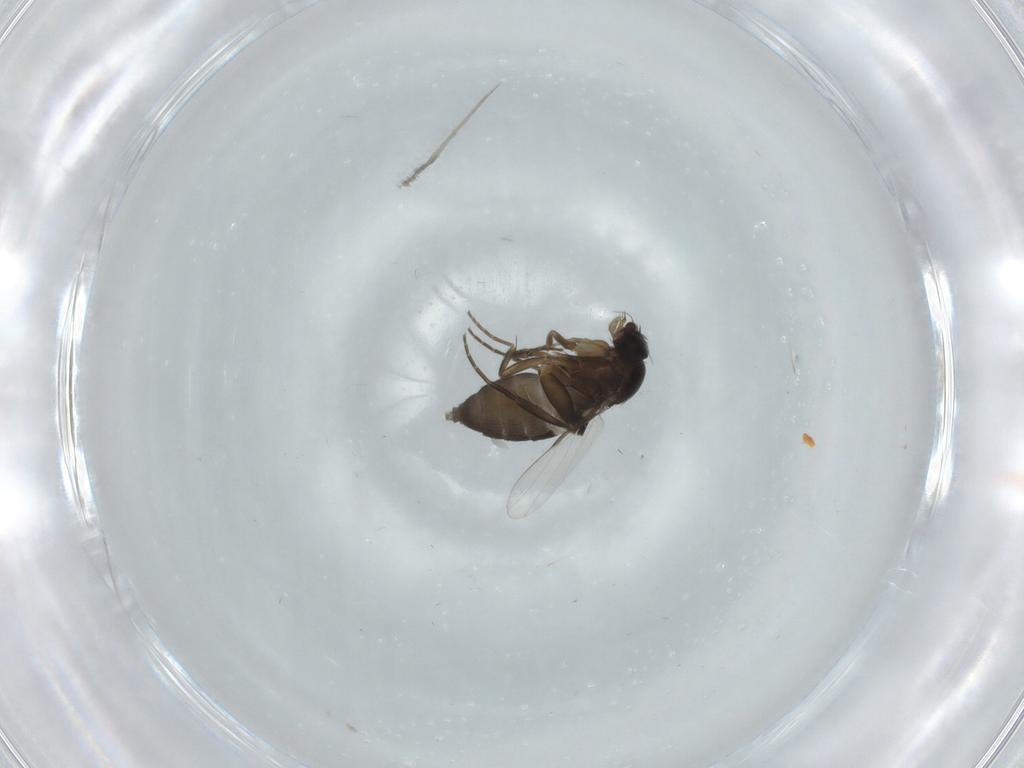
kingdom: Animalia
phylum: Arthropoda
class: Insecta
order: Diptera
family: Phoridae
